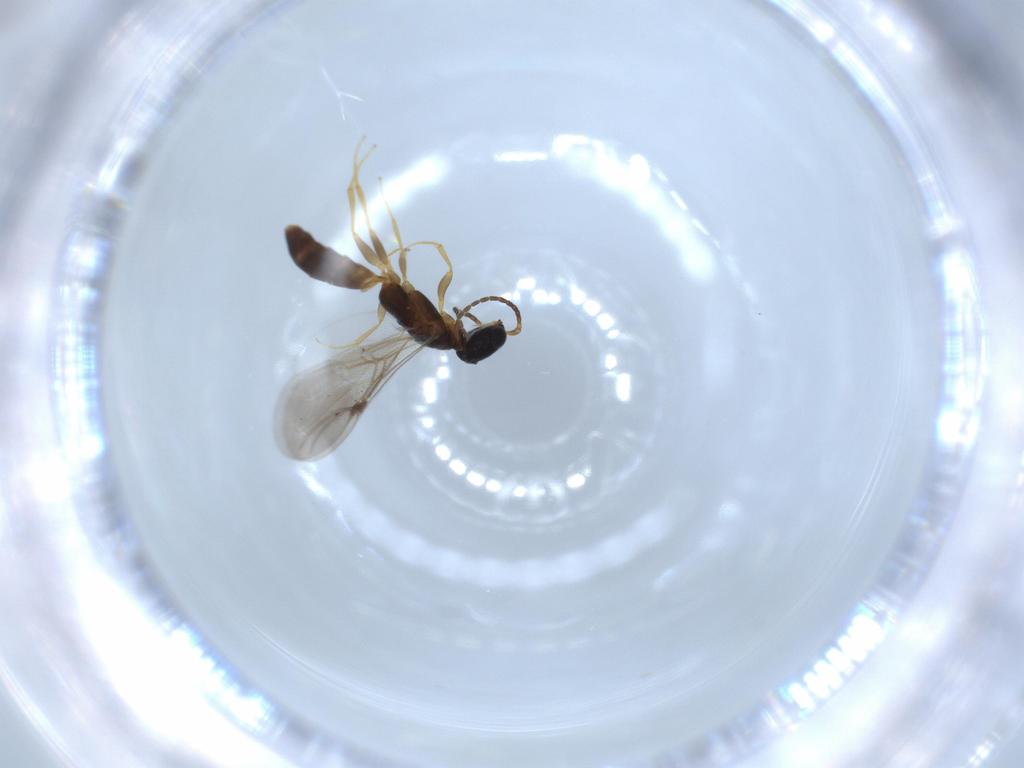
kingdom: Animalia
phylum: Arthropoda
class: Insecta
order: Hymenoptera
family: Bethylidae
